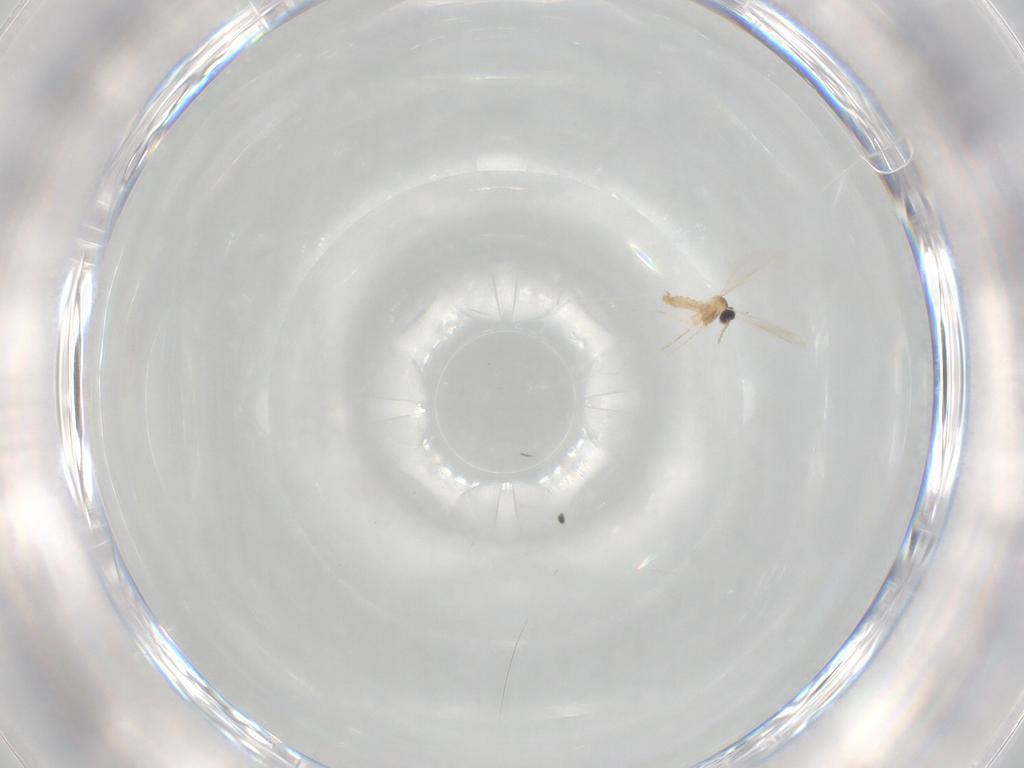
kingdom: Animalia
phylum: Arthropoda
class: Insecta
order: Diptera
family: Cecidomyiidae
